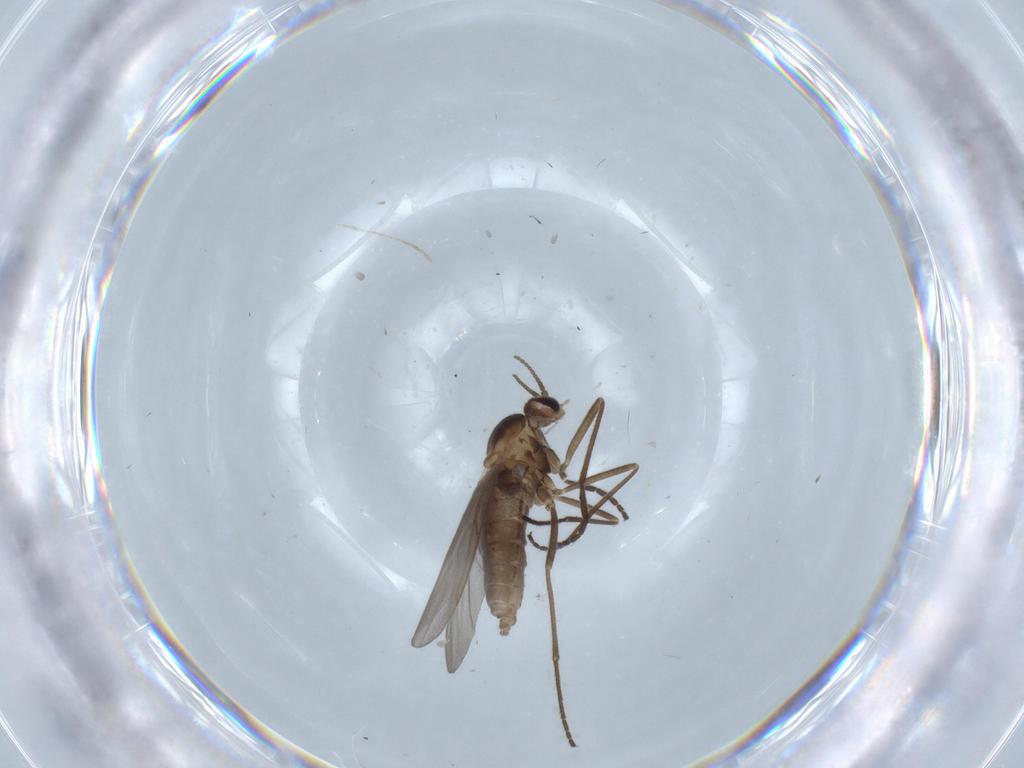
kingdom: Animalia
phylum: Arthropoda
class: Insecta
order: Diptera
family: Cecidomyiidae
